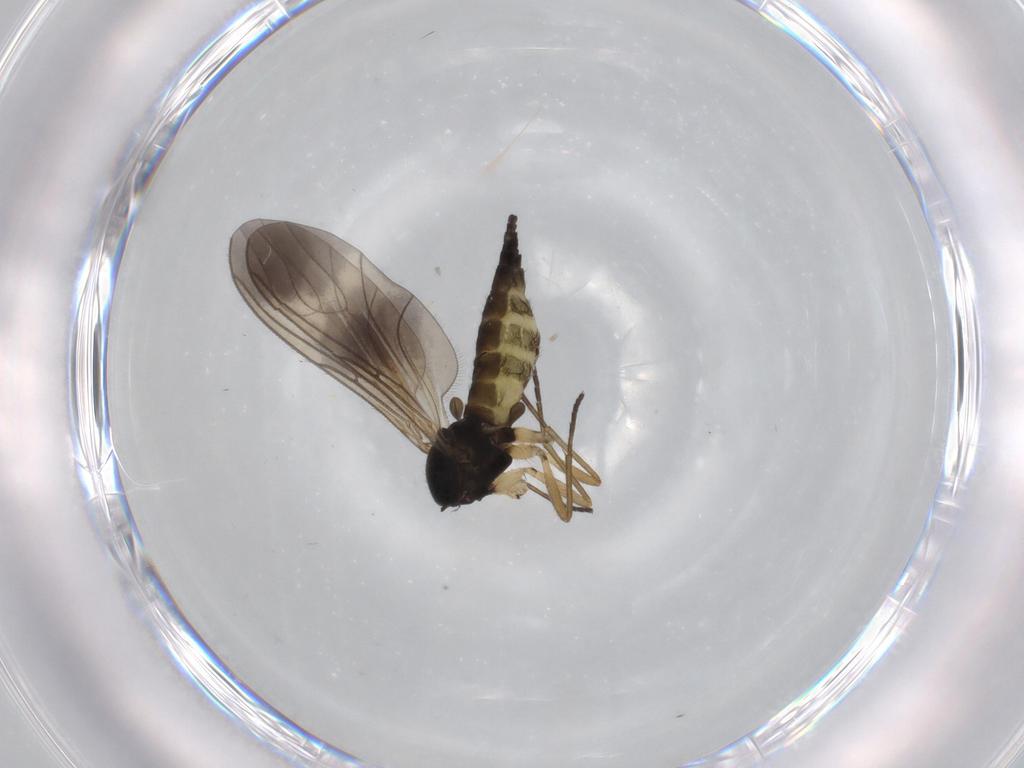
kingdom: Animalia
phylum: Arthropoda
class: Insecta
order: Diptera
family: Sciaridae
